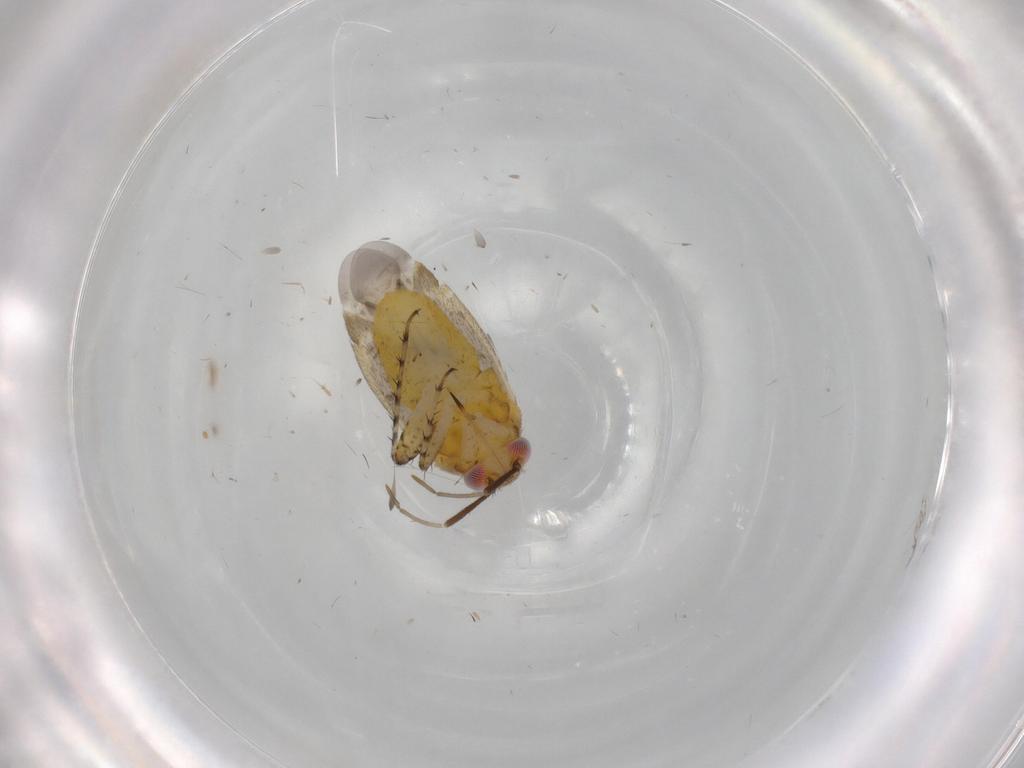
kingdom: Animalia
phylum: Arthropoda
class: Insecta
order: Hemiptera
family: Miridae
